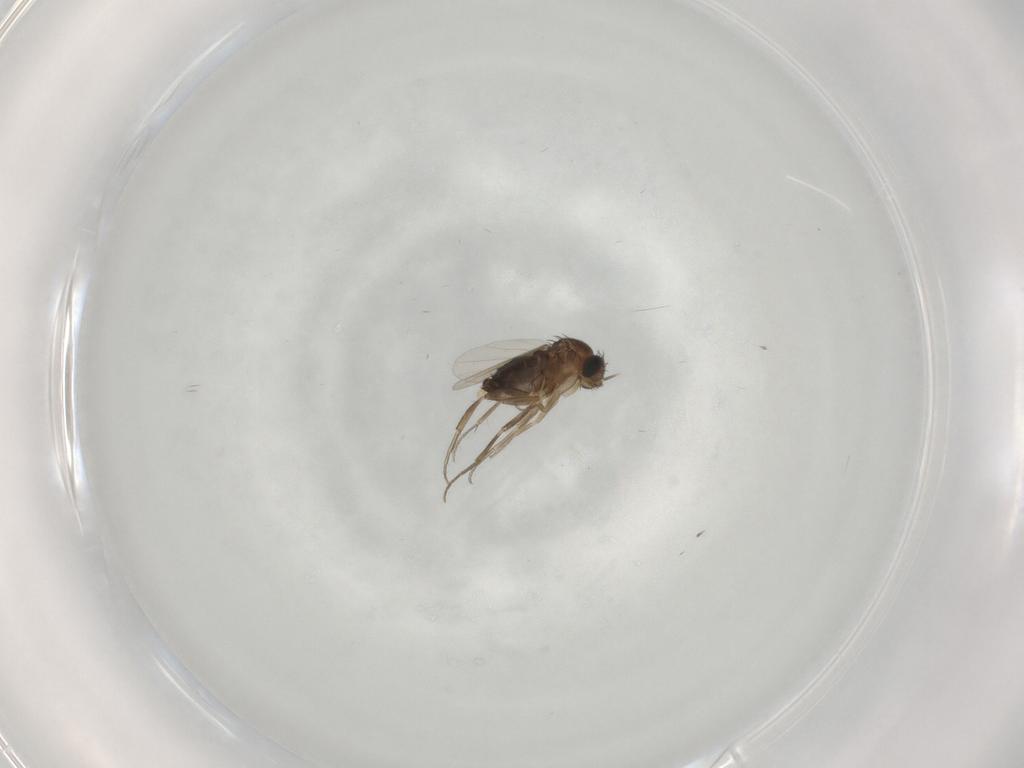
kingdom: Animalia
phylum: Arthropoda
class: Insecta
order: Diptera
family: Phoridae
